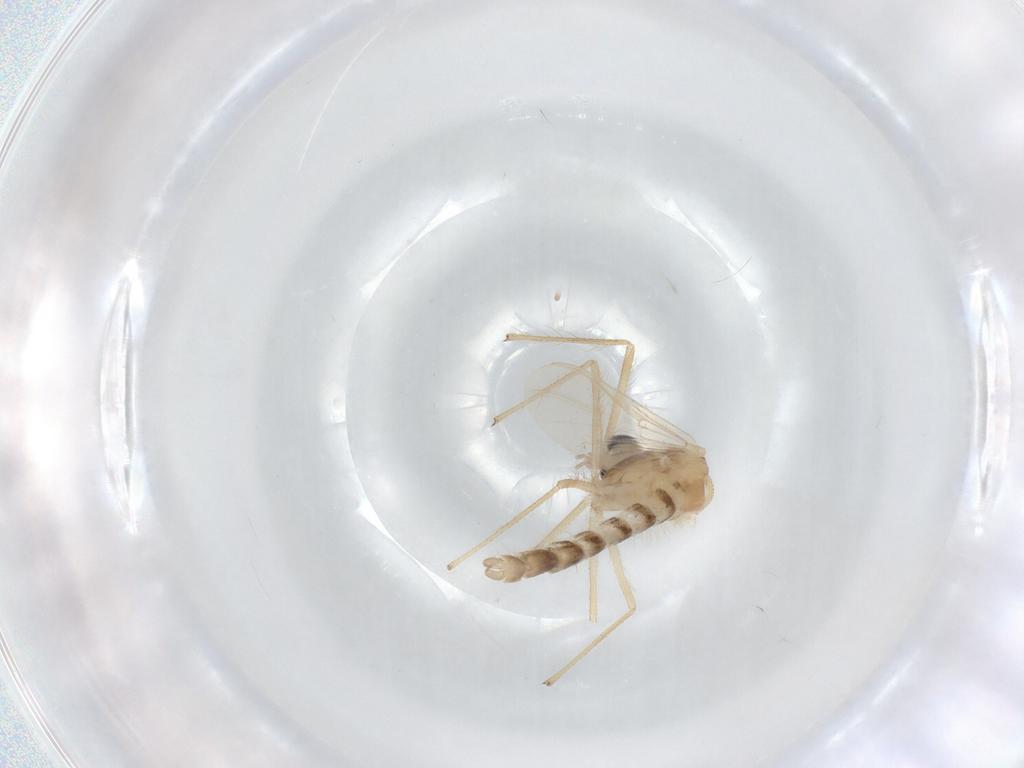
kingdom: Animalia
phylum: Arthropoda
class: Insecta
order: Diptera
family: Chironomidae
